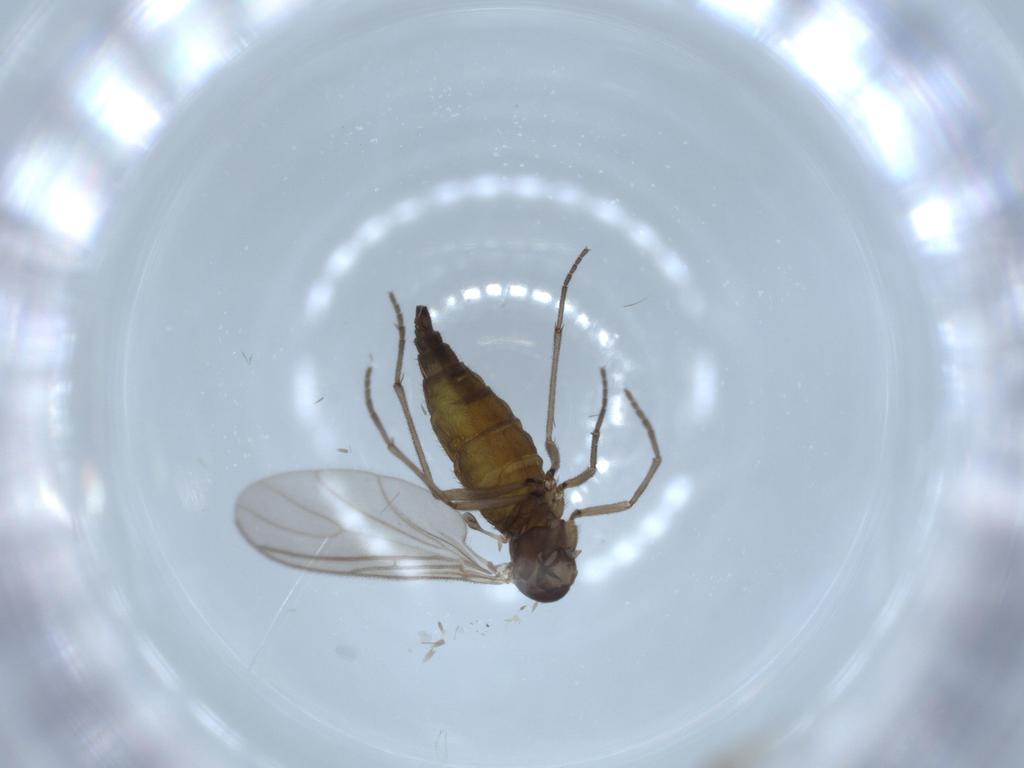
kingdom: Animalia
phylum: Arthropoda
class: Insecta
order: Diptera
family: Sciaridae
